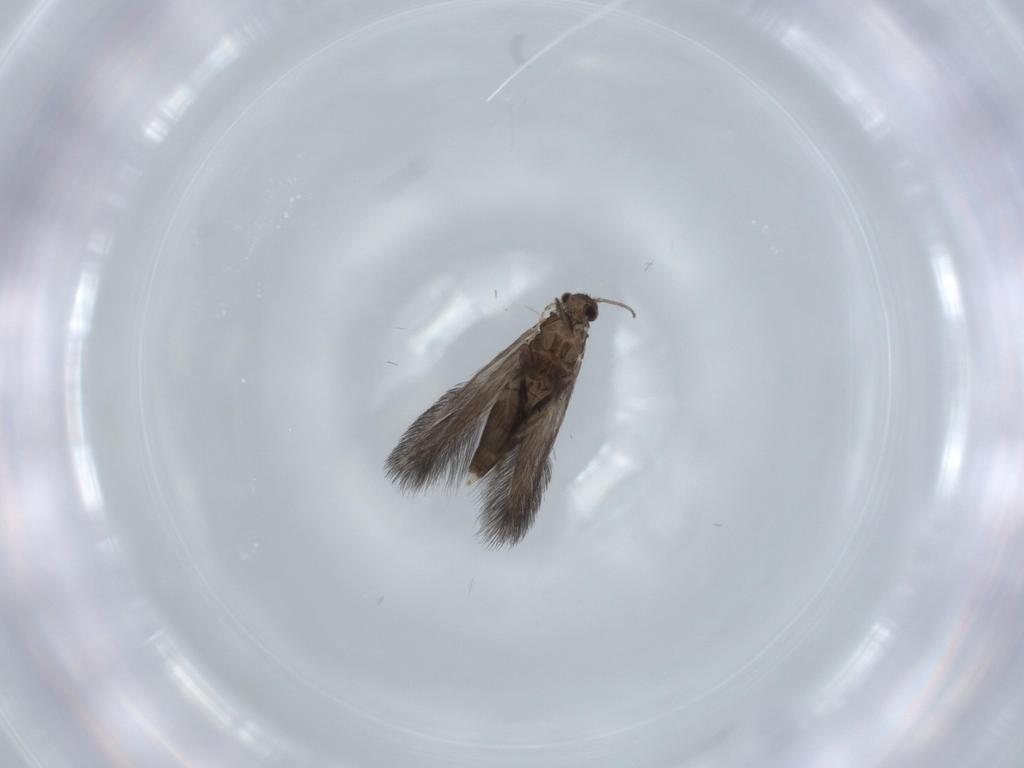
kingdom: Animalia
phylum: Arthropoda
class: Insecta
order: Trichoptera
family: Hydroptilidae
